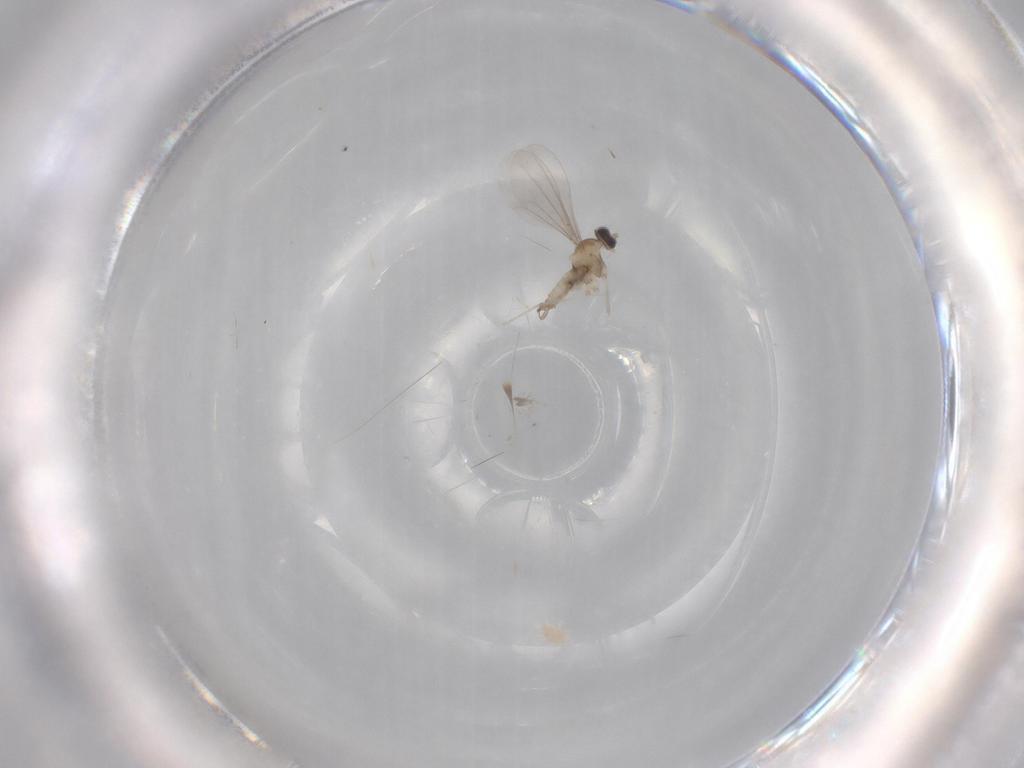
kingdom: Animalia
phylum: Arthropoda
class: Insecta
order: Diptera
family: Cecidomyiidae
